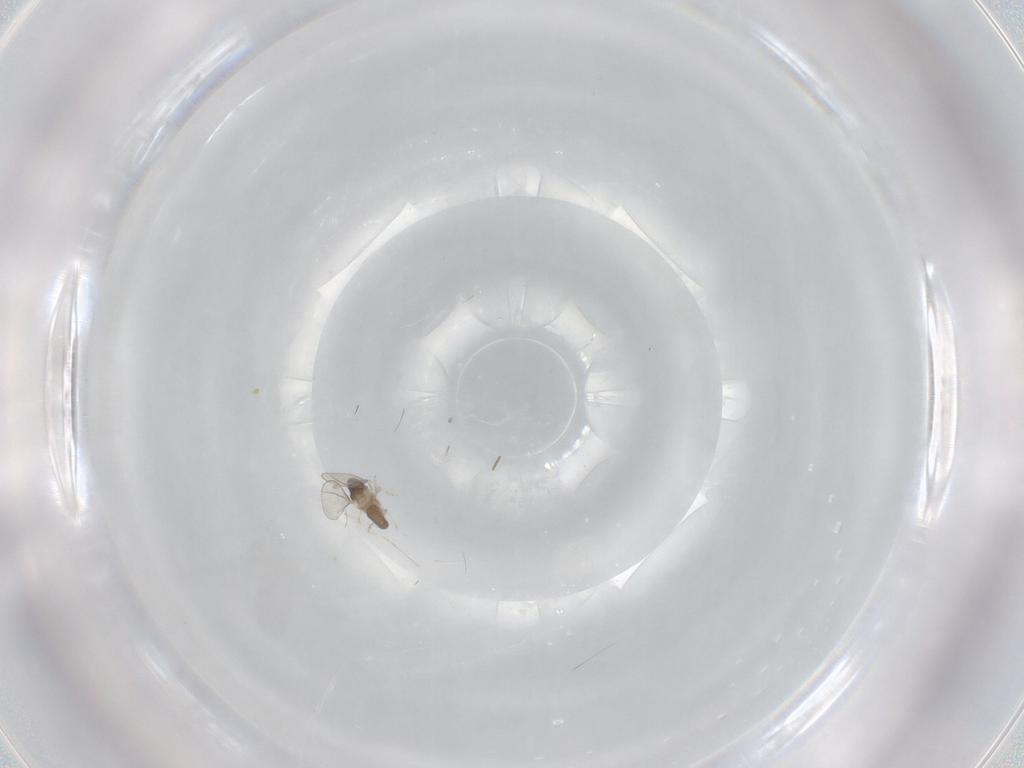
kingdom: Animalia
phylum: Arthropoda
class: Insecta
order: Diptera
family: Cecidomyiidae
